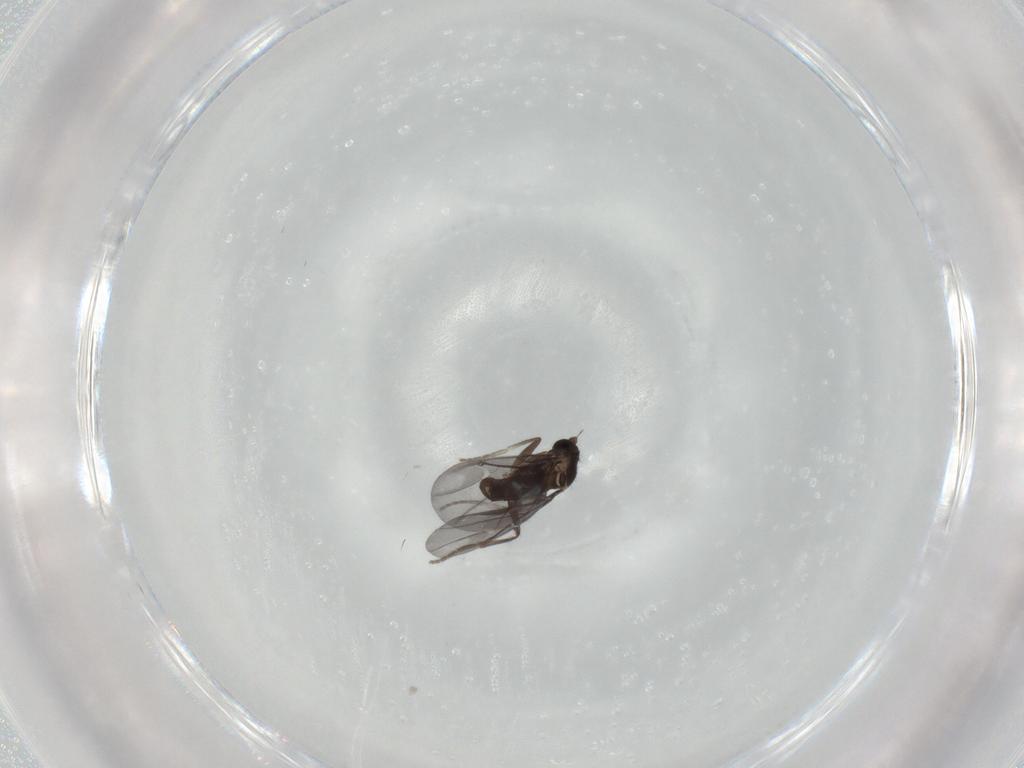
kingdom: Animalia
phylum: Arthropoda
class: Insecta
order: Diptera
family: Phoridae
